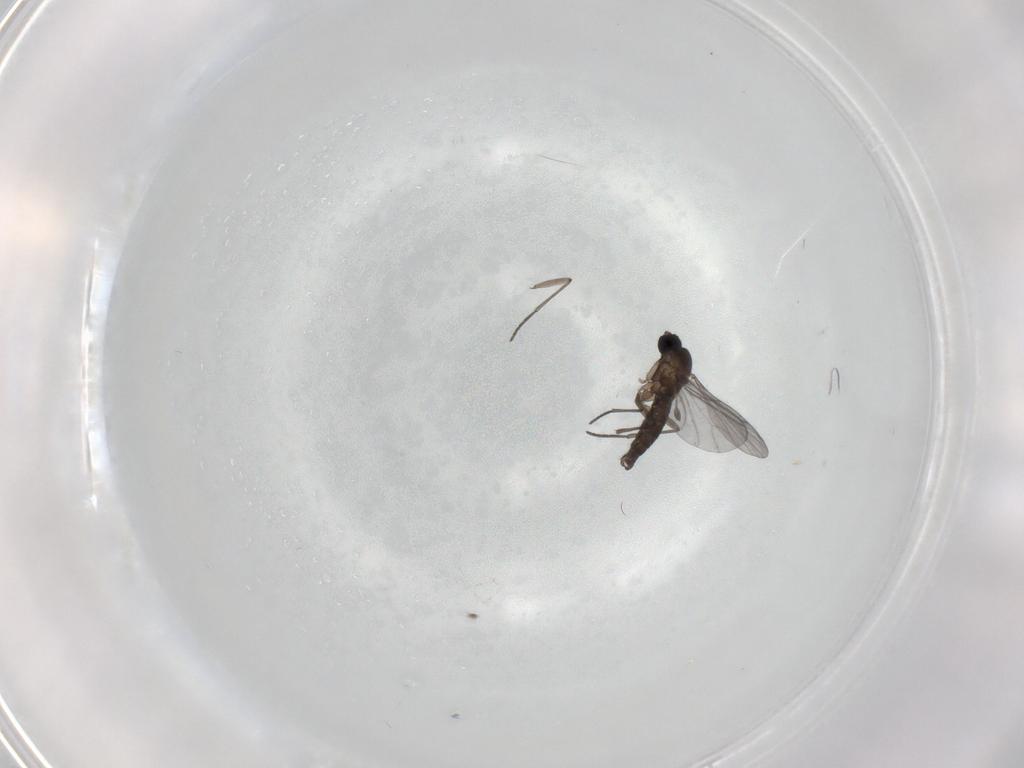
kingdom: Animalia
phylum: Arthropoda
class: Insecta
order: Diptera
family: Sciaridae
